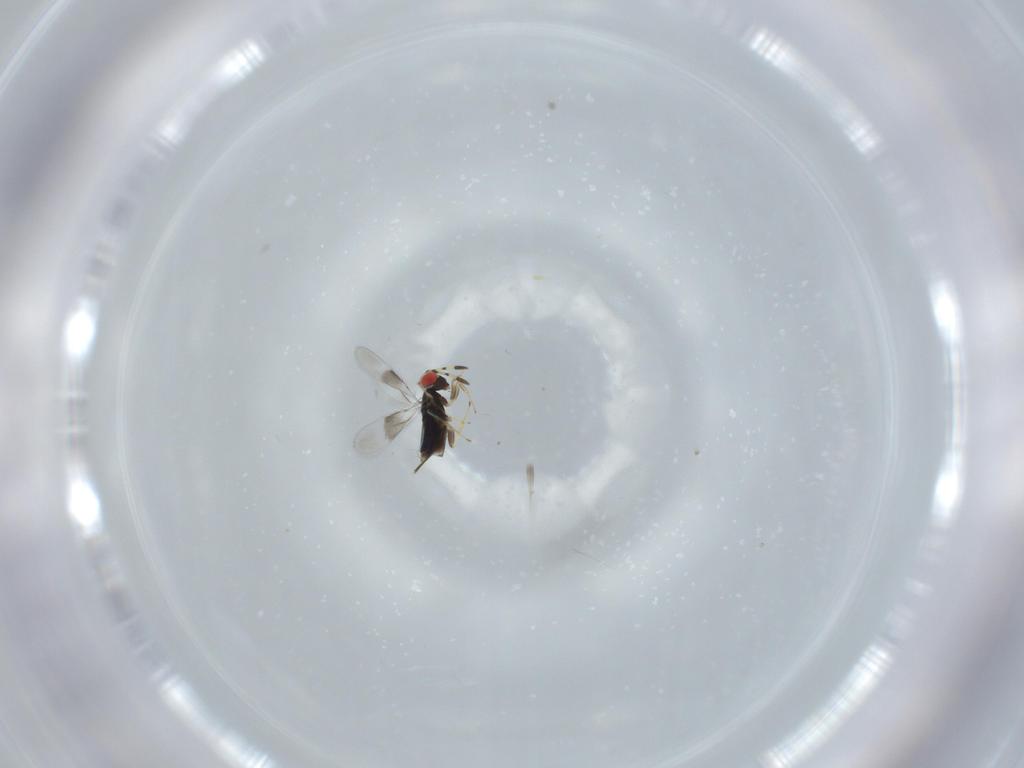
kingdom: Animalia
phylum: Arthropoda
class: Insecta
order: Hymenoptera
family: Azotidae
